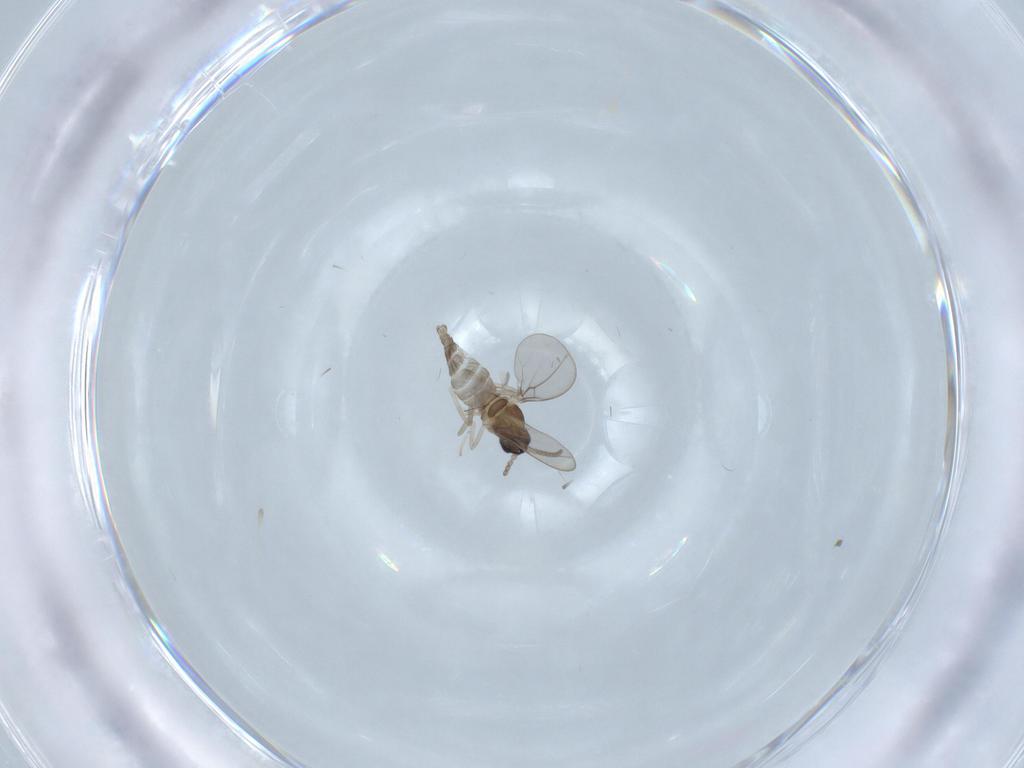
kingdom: Animalia
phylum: Arthropoda
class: Insecta
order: Diptera
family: Cecidomyiidae
